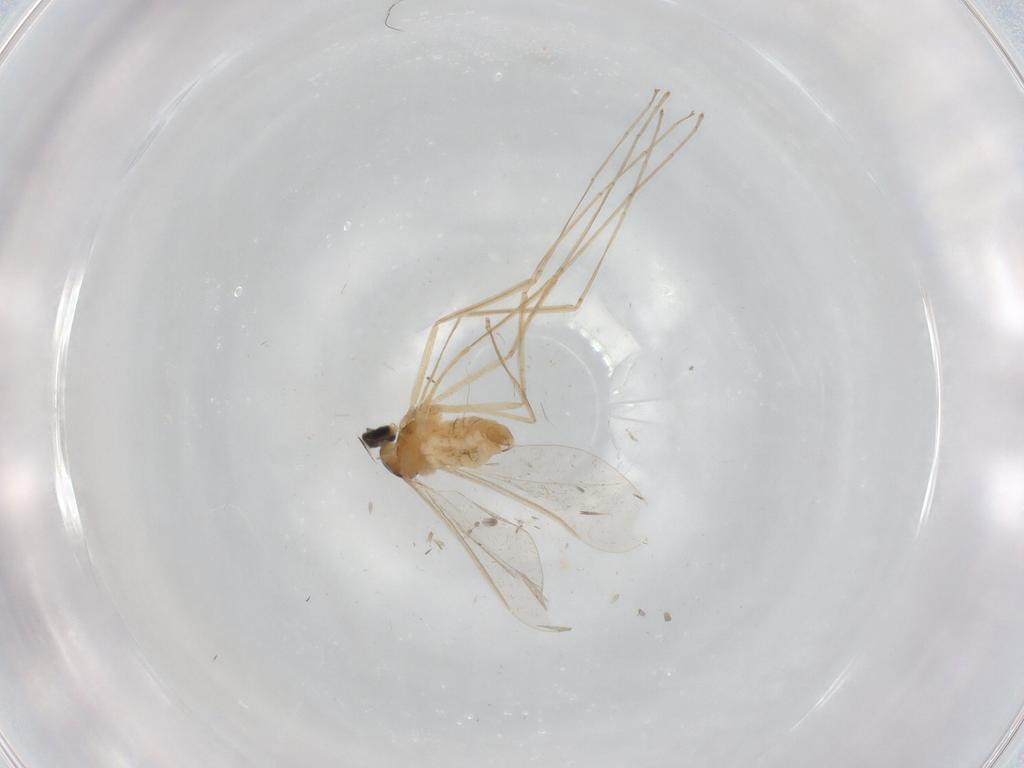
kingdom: Animalia
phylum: Arthropoda
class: Insecta
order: Diptera
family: Cecidomyiidae
